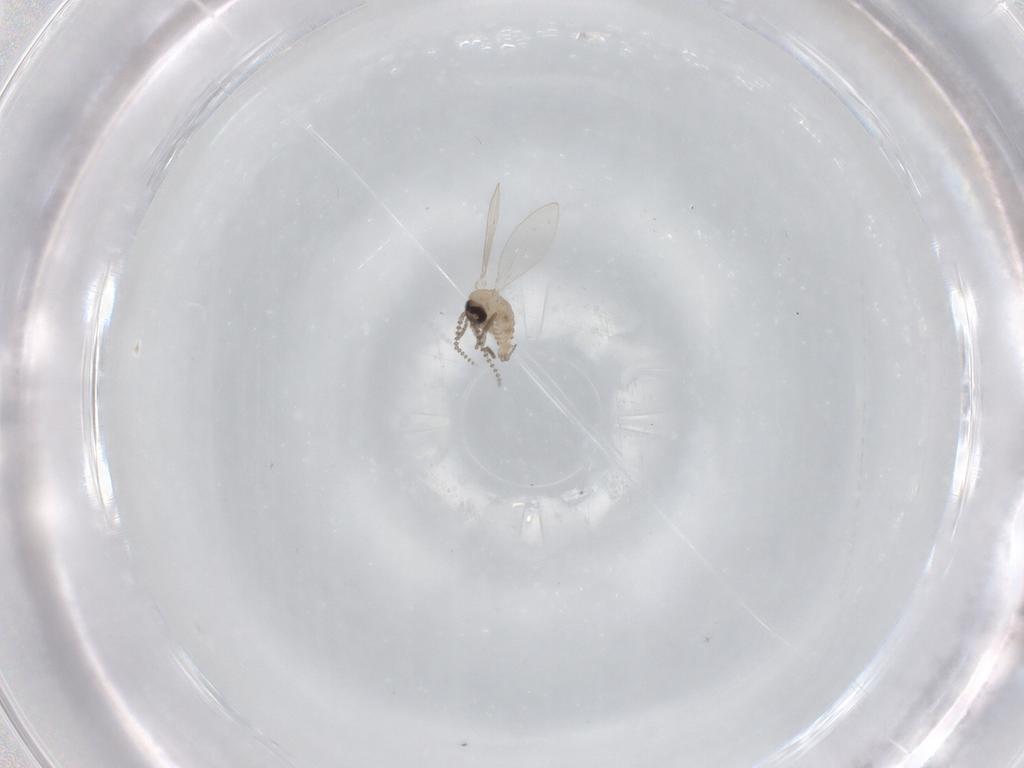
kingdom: Animalia
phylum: Arthropoda
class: Insecta
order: Diptera
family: Psychodidae
